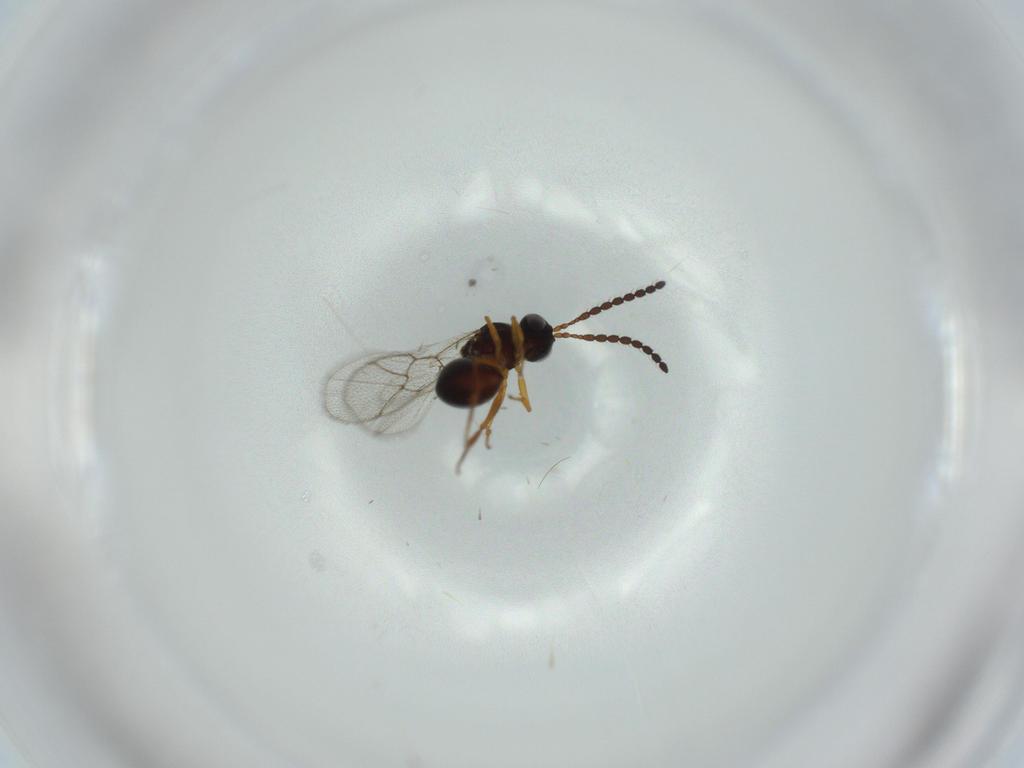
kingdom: Animalia
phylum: Arthropoda
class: Insecta
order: Hymenoptera
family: Figitidae
